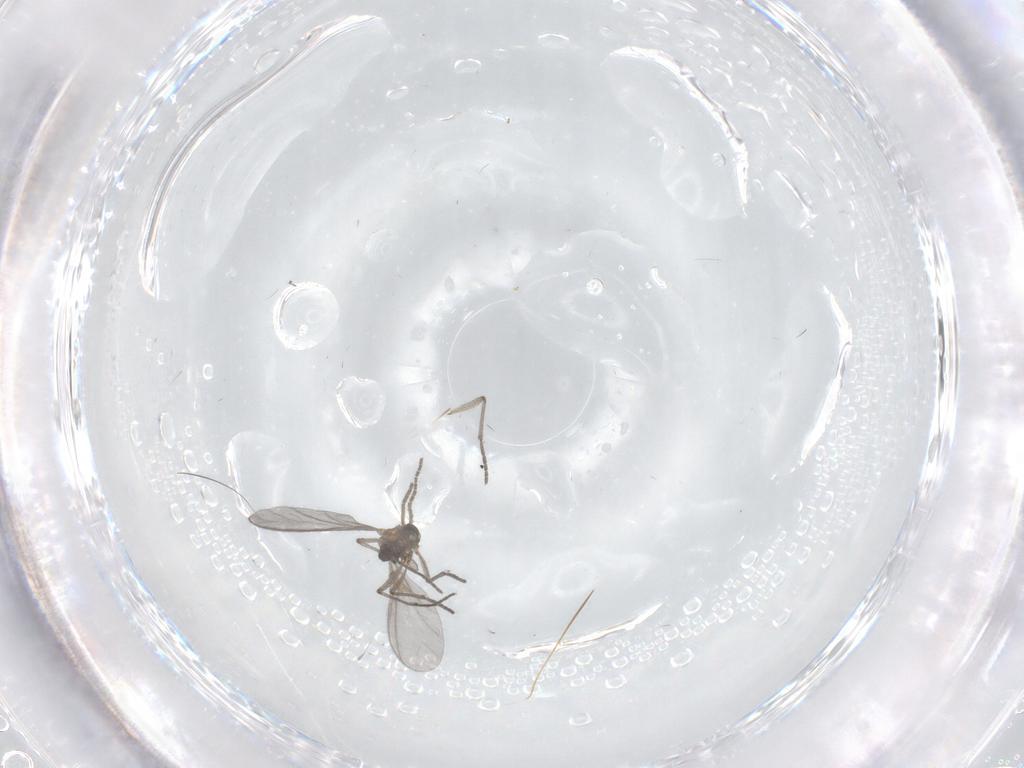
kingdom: Animalia
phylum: Arthropoda
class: Insecta
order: Diptera
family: Sciaridae
